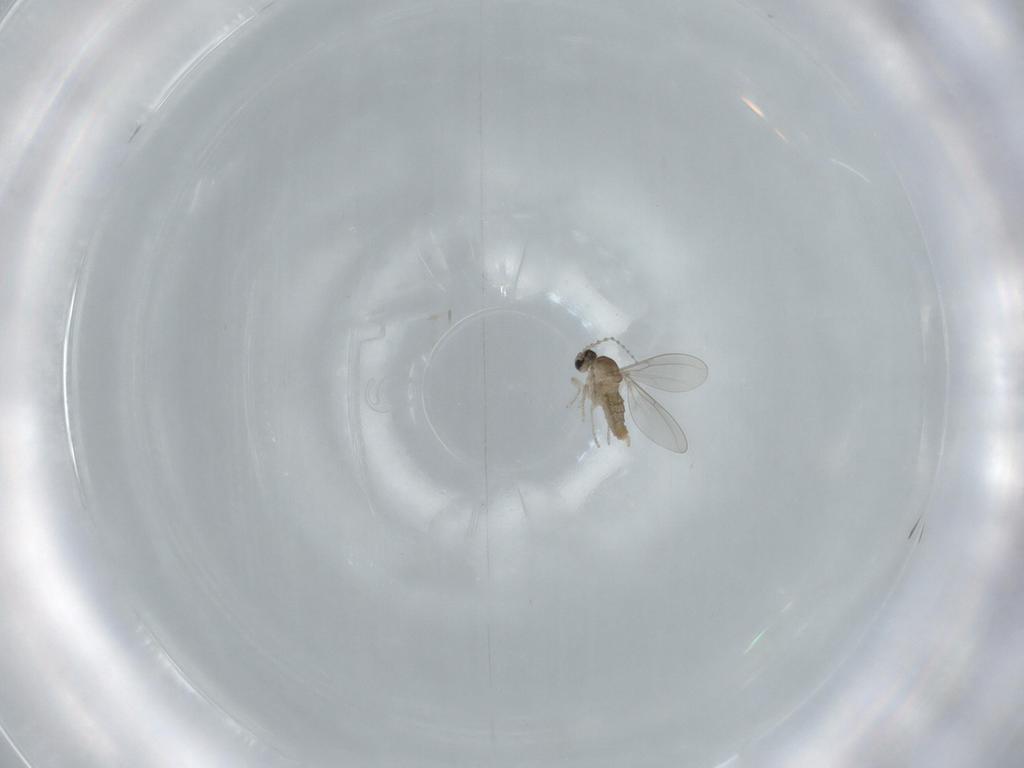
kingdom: Animalia
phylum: Arthropoda
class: Insecta
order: Diptera
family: Cecidomyiidae
